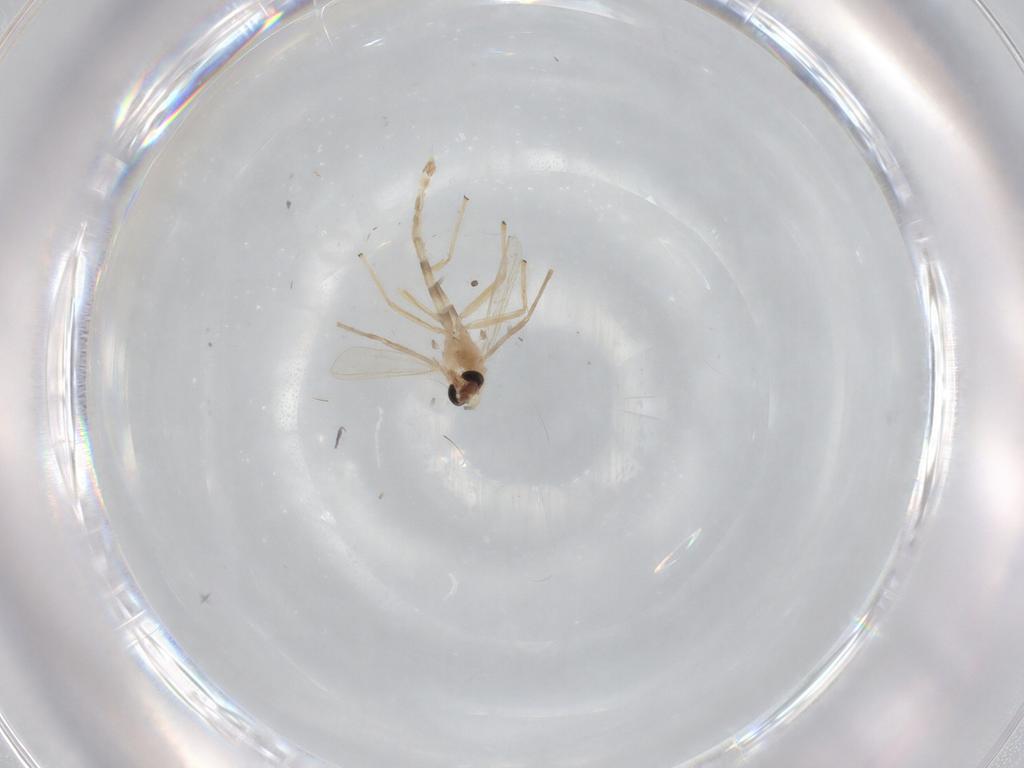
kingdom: Animalia
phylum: Arthropoda
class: Insecta
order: Diptera
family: Chironomidae
